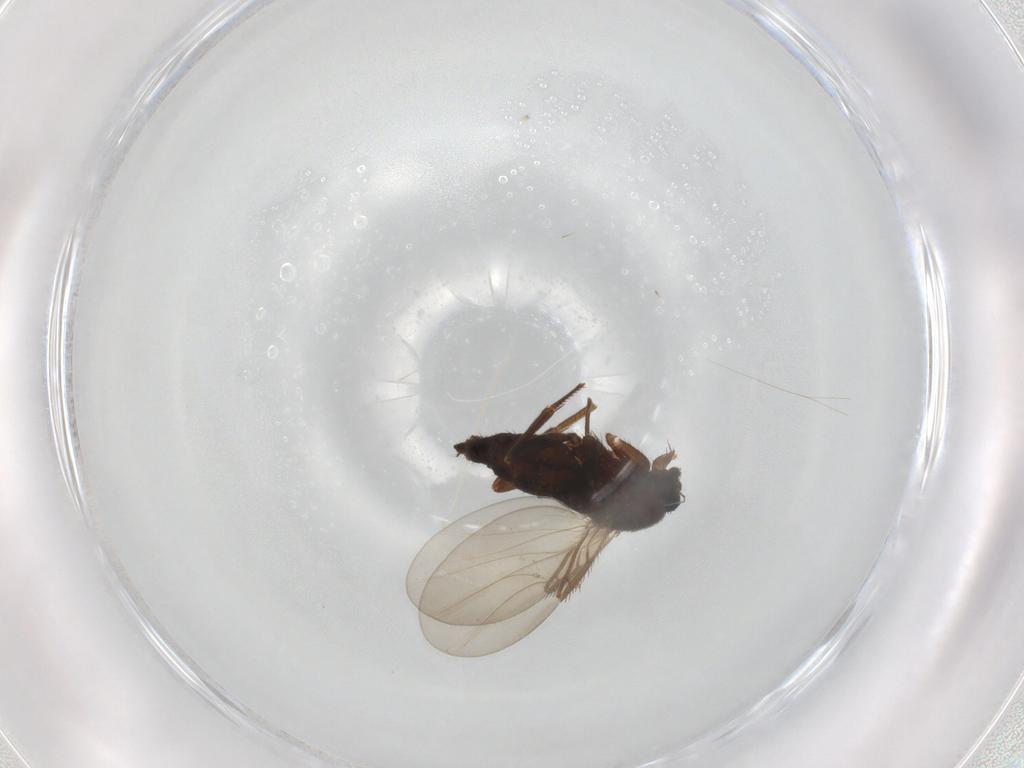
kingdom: Animalia
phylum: Arthropoda
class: Insecta
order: Diptera
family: Phoridae
